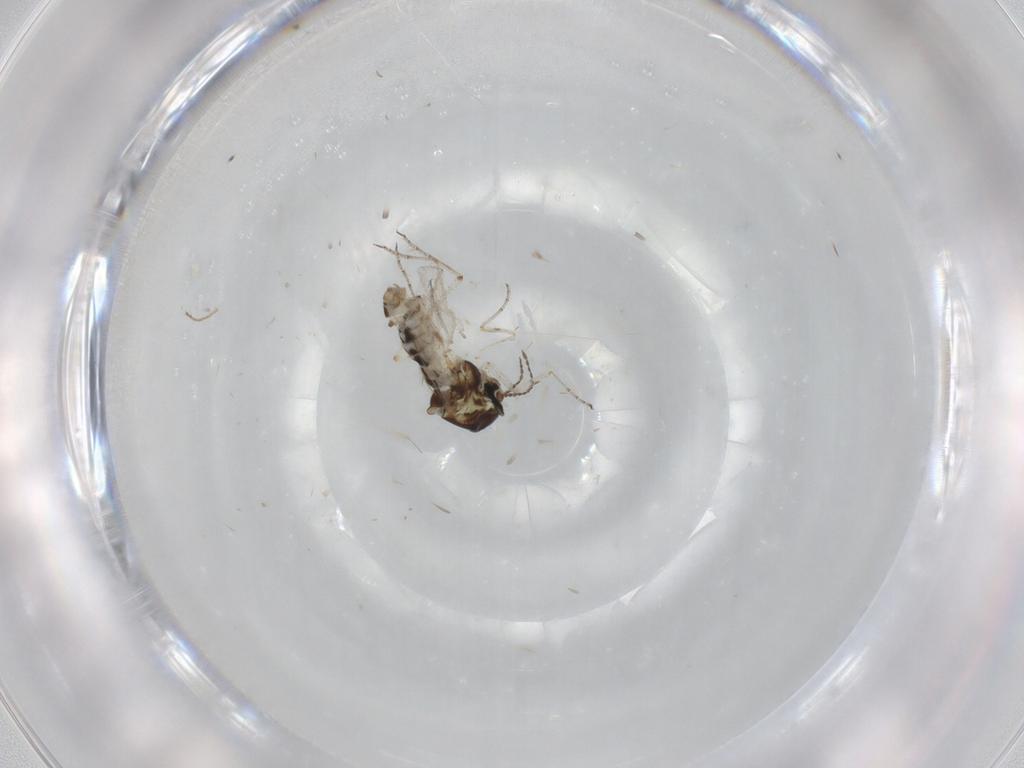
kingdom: Animalia
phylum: Arthropoda
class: Insecta
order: Diptera
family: Ceratopogonidae
